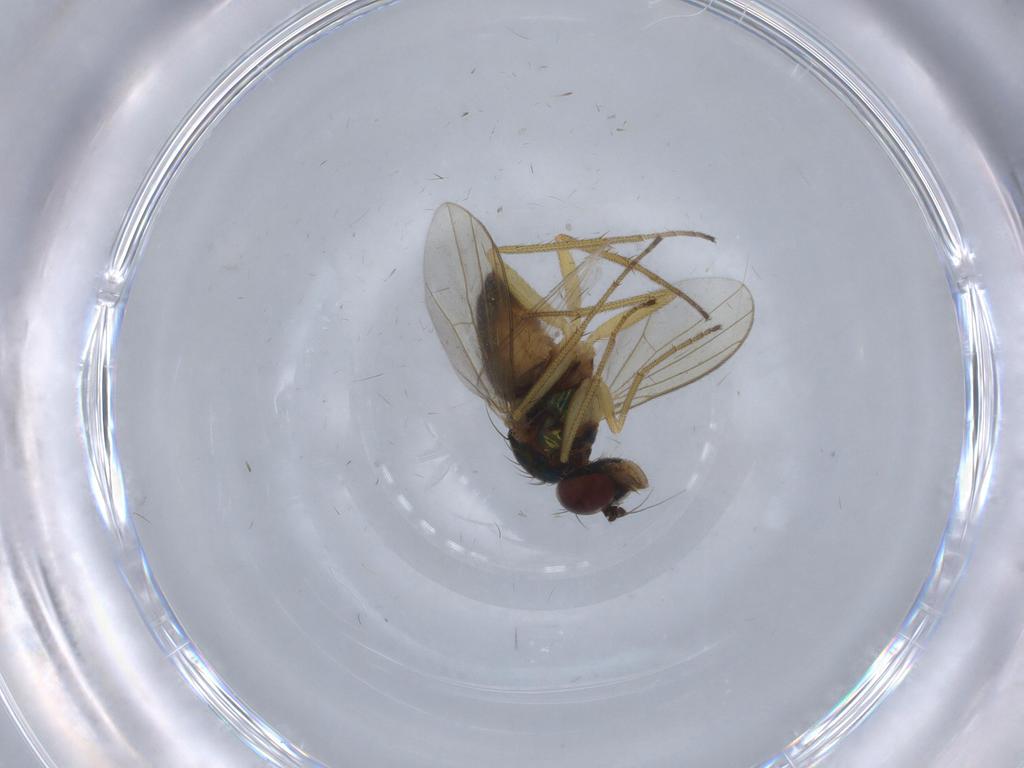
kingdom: Animalia
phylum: Arthropoda
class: Insecta
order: Diptera
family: Dolichopodidae
